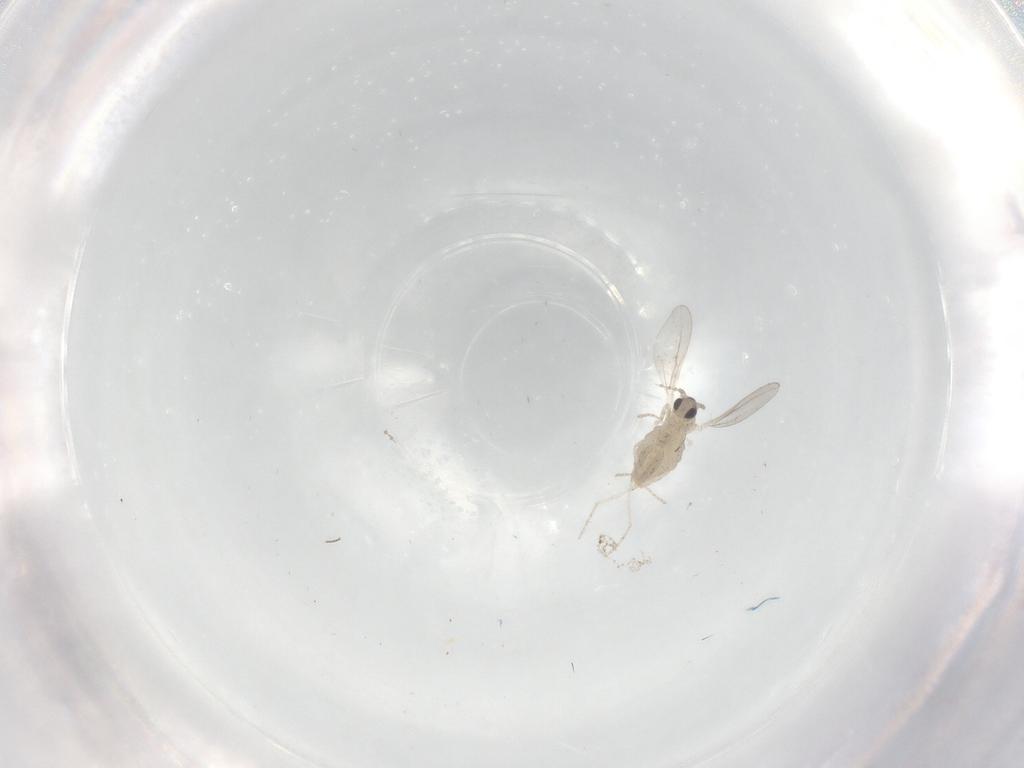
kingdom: Animalia
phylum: Arthropoda
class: Insecta
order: Diptera
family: Cecidomyiidae
